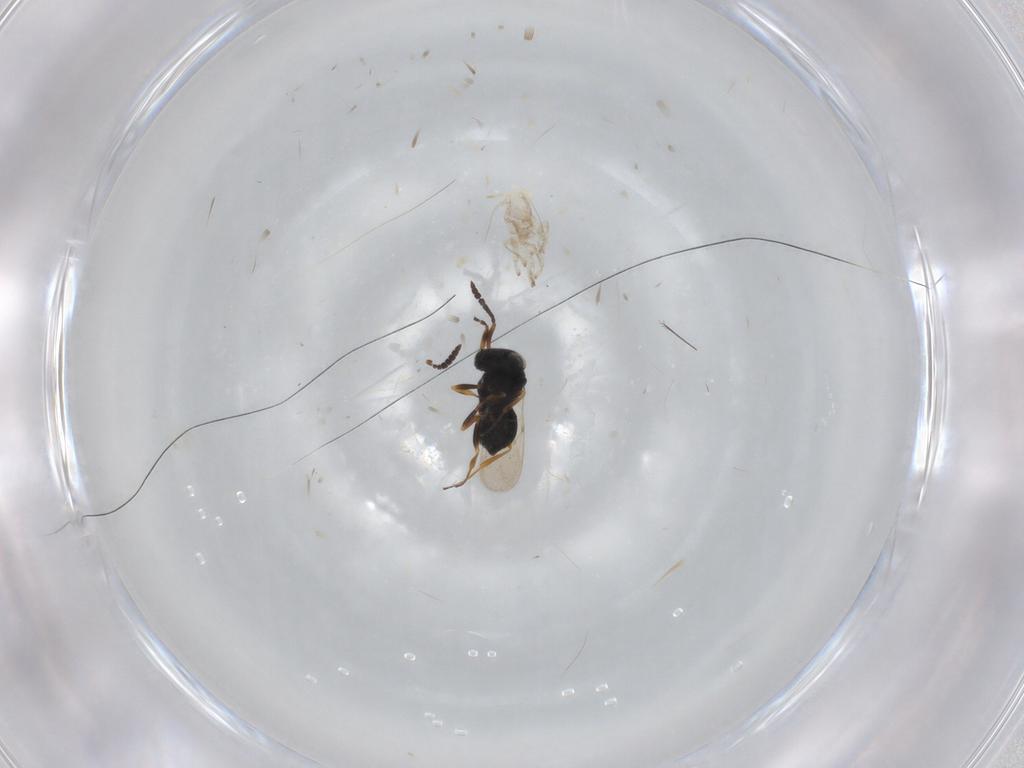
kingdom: Animalia
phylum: Arthropoda
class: Insecta
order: Hymenoptera
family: Scelionidae
